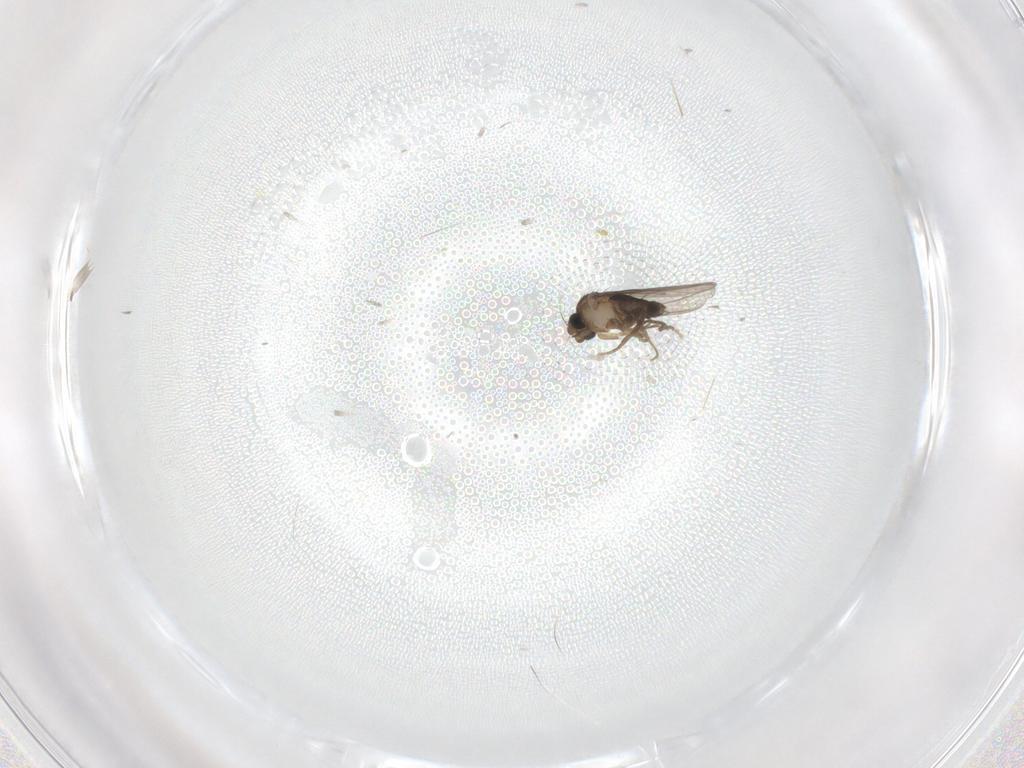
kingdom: Animalia
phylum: Arthropoda
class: Insecta
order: Diptera
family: Phoridae
